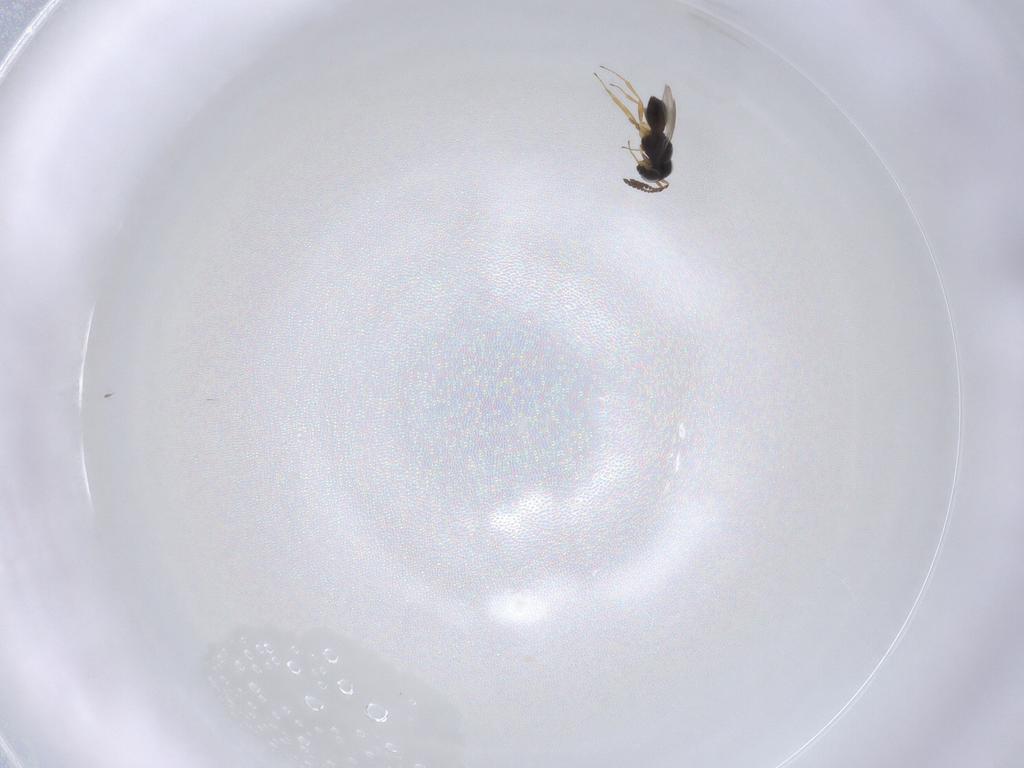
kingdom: Animalia
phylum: Arthropoda
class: Insecta
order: Hymenoptera
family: Scelionidae
